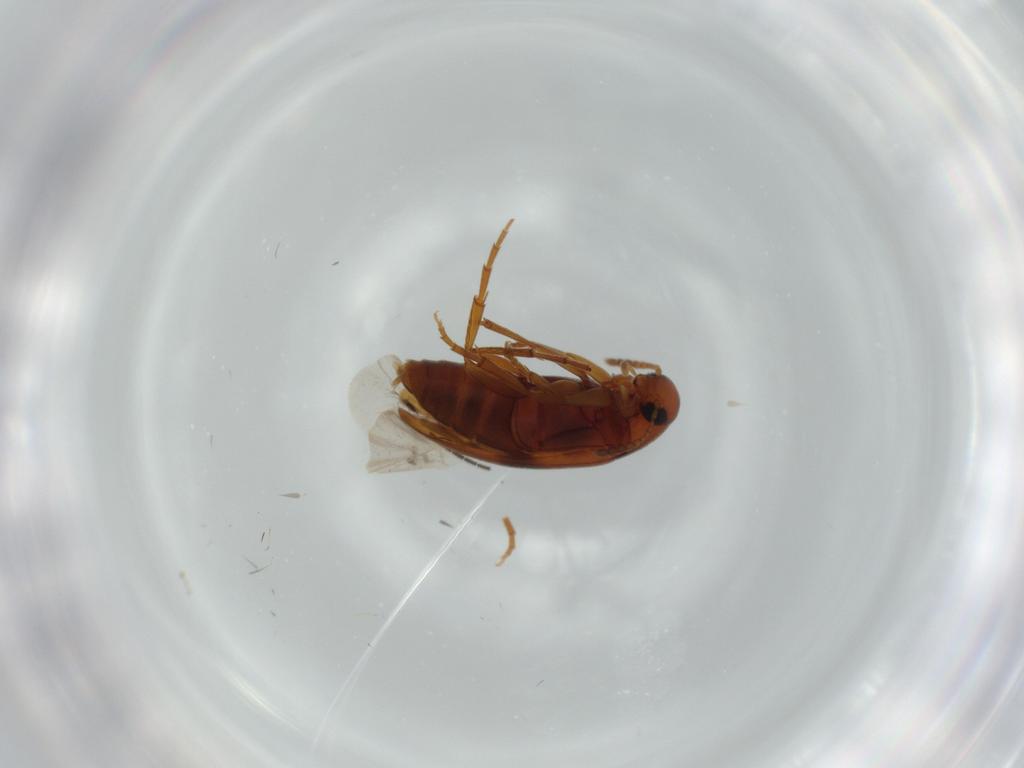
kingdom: Animalia
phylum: Arthropoda
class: Insecta
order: Coleoptera
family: Scraptiidae
